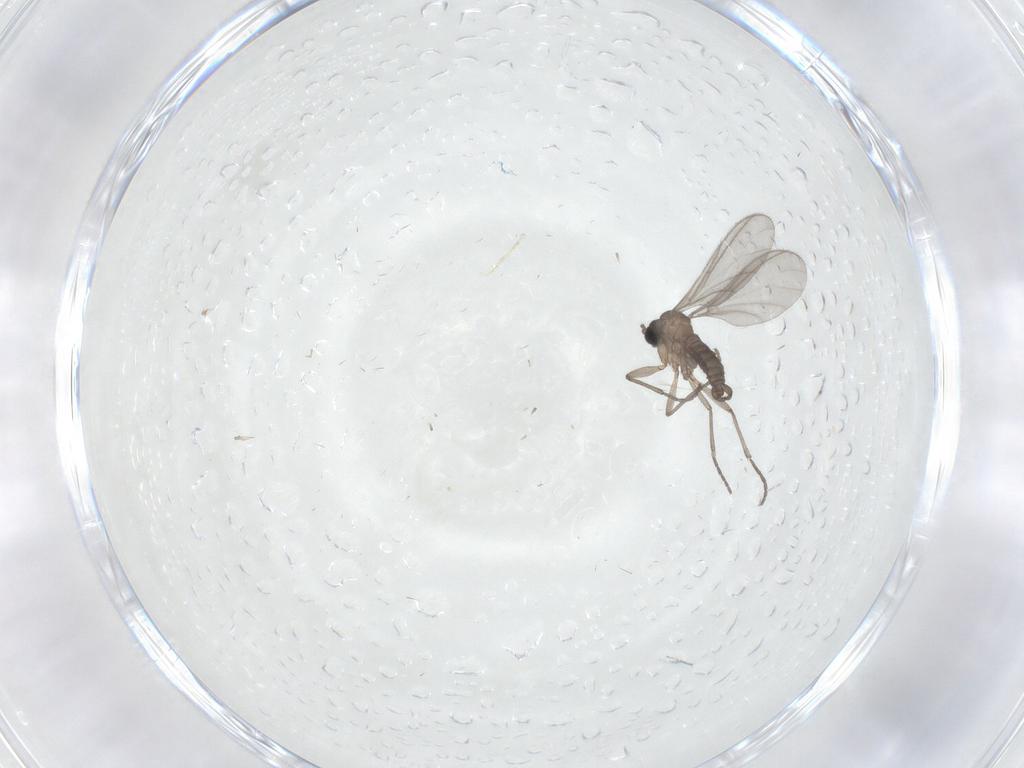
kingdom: Animalia
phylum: Arthropoda
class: Insecta
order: Diptera
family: Sciaridae
